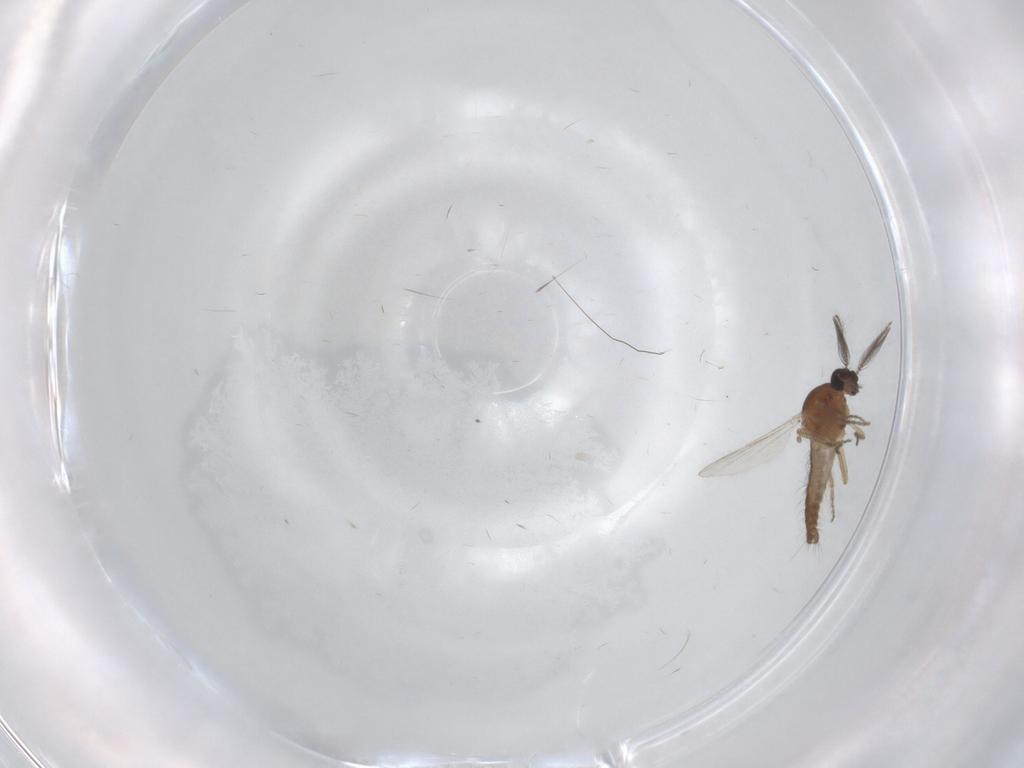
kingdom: Animalia
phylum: Arthropoda
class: Insecta
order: Diptera
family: Ceratopogonidae
